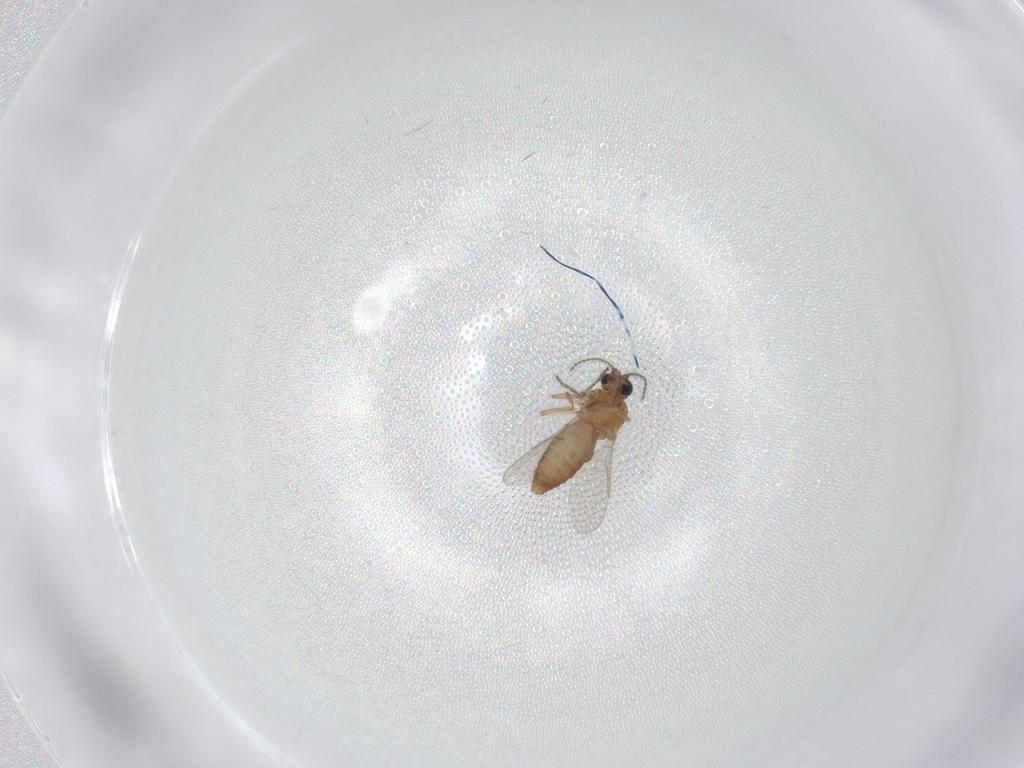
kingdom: Animalia
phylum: Arthropoda
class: Insecta
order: Diptera
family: Ceratopogonidae
